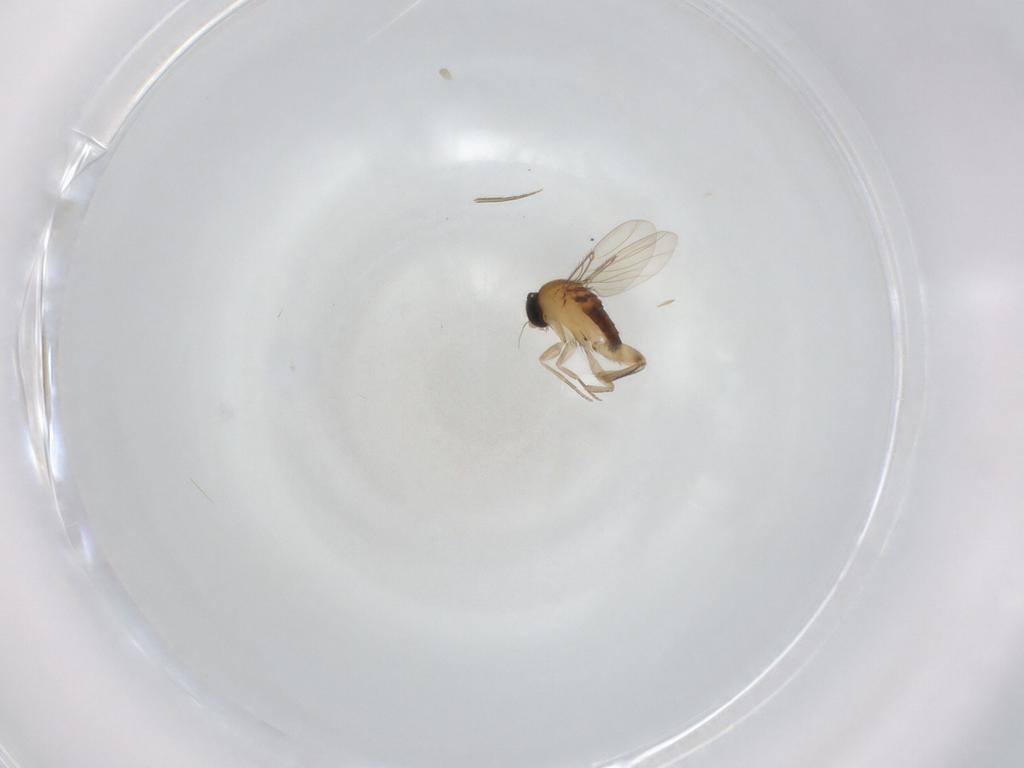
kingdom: Animalia
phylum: Arthropoda
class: Insecta
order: Diptera
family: Phoridae
